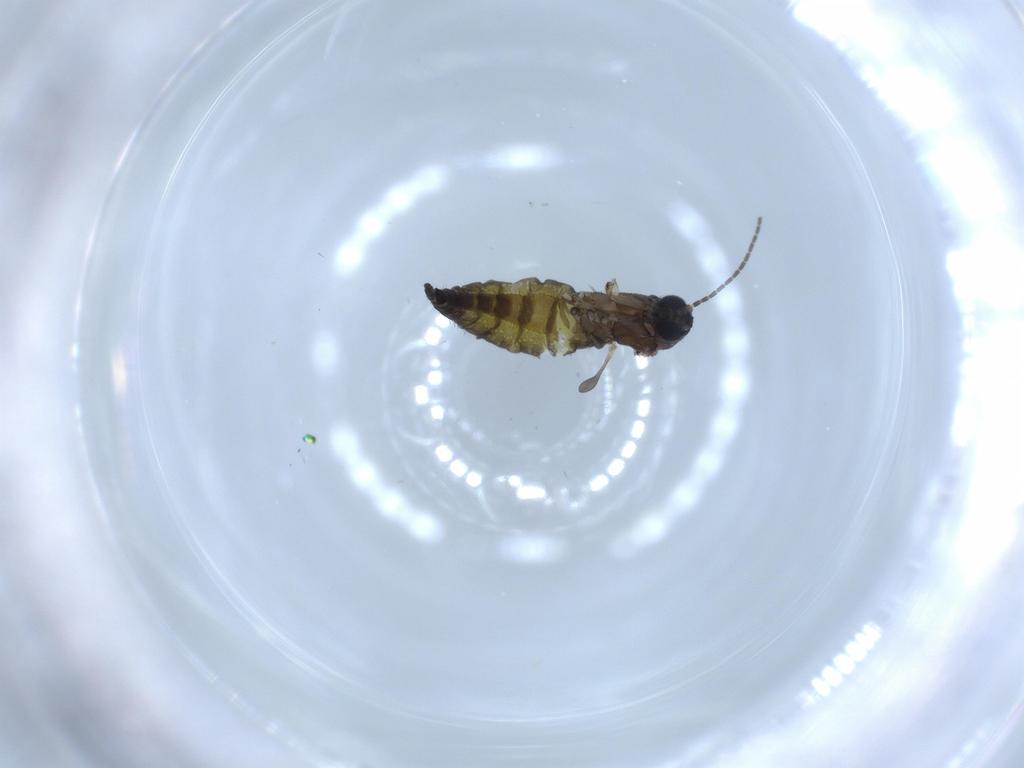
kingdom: Animalia
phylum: Arthropoda
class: Insecta
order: Diptera
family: Sciaridae
